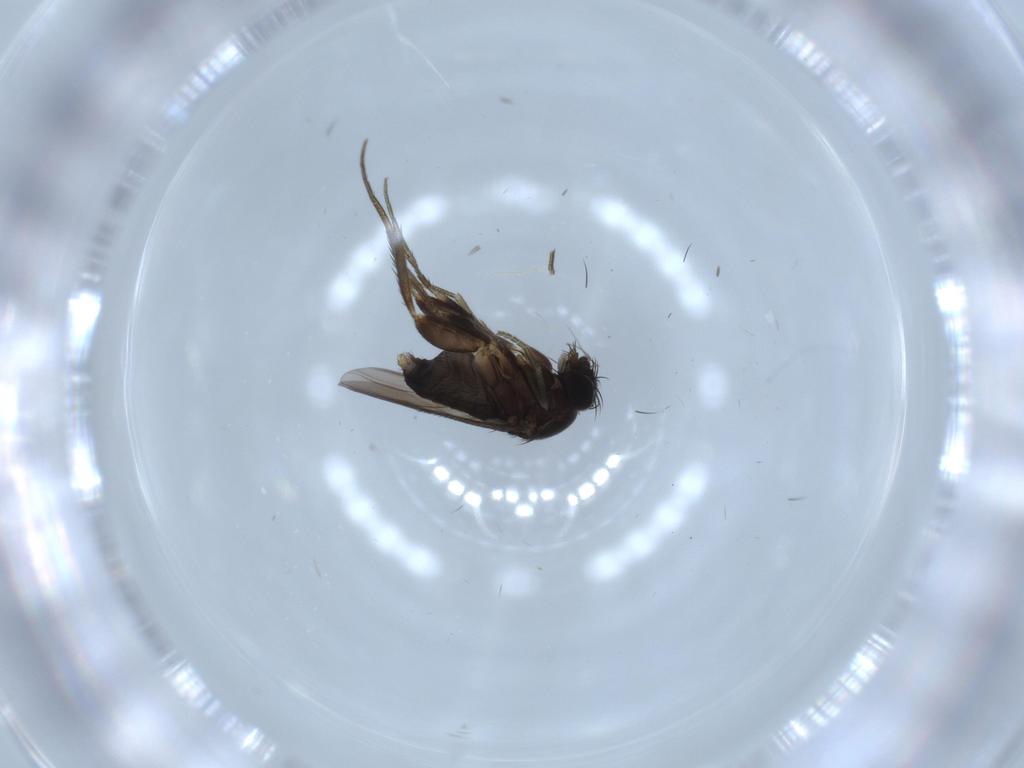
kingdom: Animalia
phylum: Arthropoda
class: Insecta
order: Diptera
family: Phoridae
